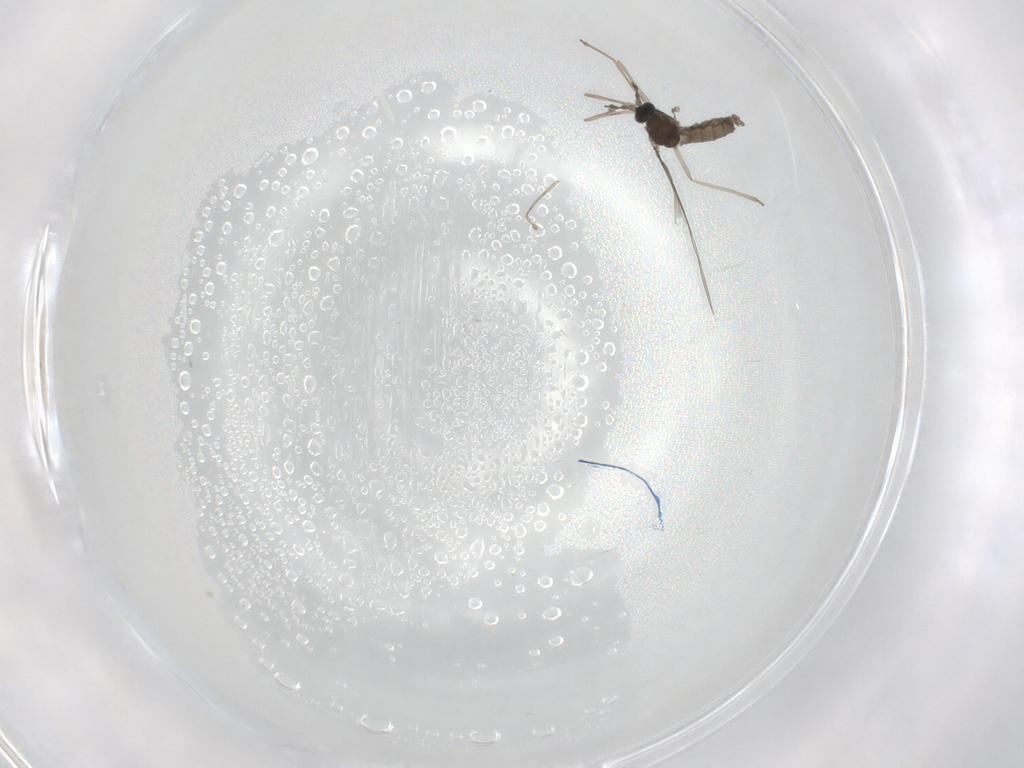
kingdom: Animalia
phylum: Arthropoda
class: Insecta
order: Diptera
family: Cecidomyiidae
